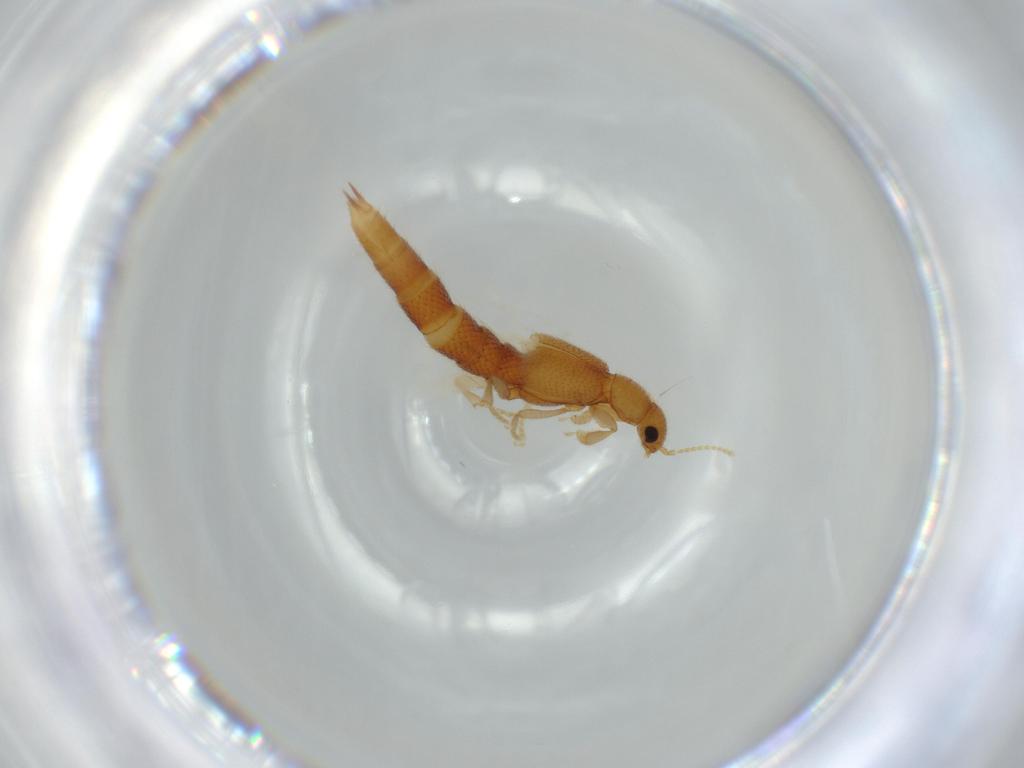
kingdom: Animalia
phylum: Arthropoda
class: Insecta
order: Coleoptera
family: Staphylinidae
